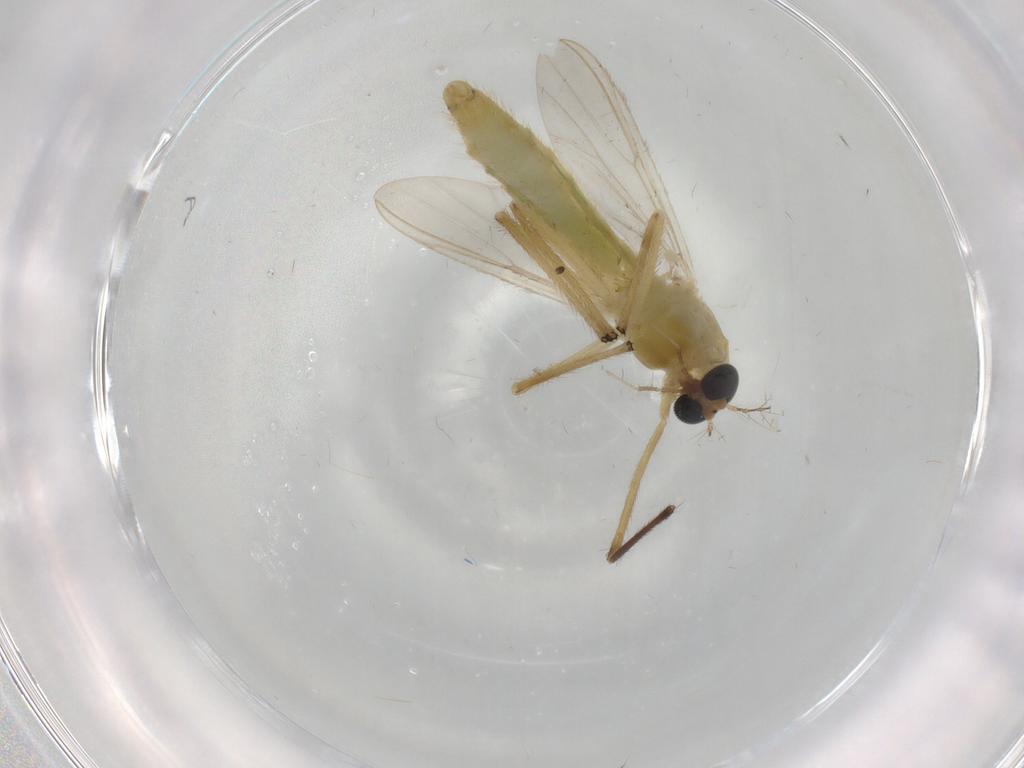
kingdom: Animalia
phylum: Arthropoda
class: Insecta
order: Diptera
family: Chironomidae
